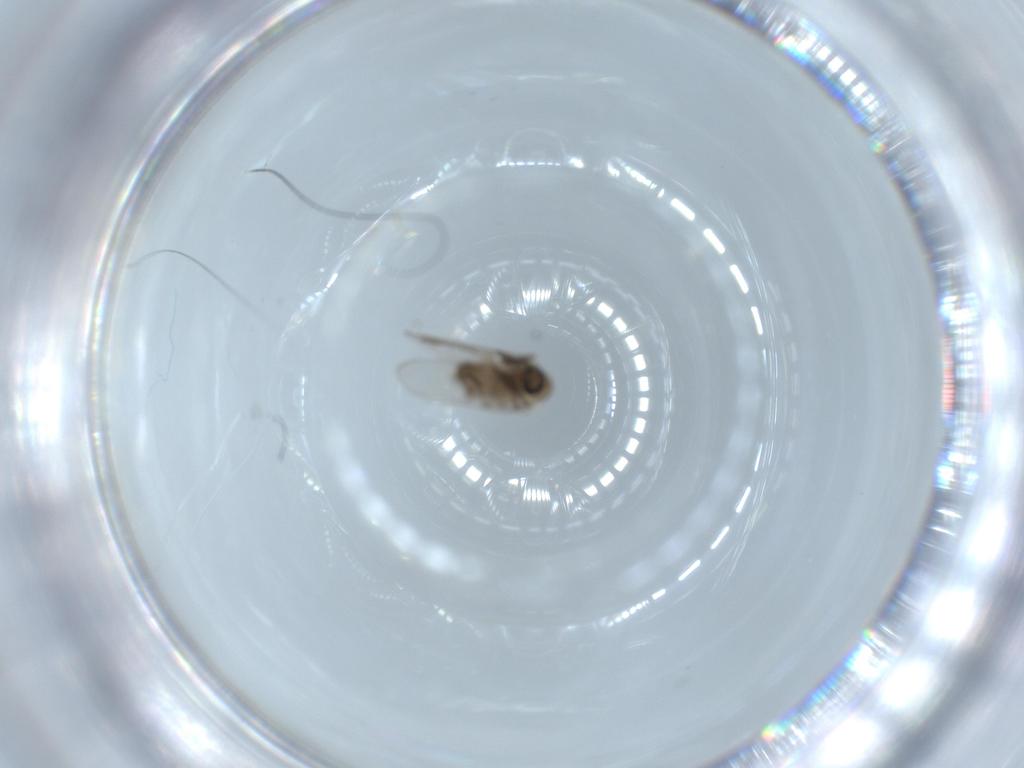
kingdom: Animalia
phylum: Arthropoda
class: Insecta
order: Diptera
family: Psychodidae
